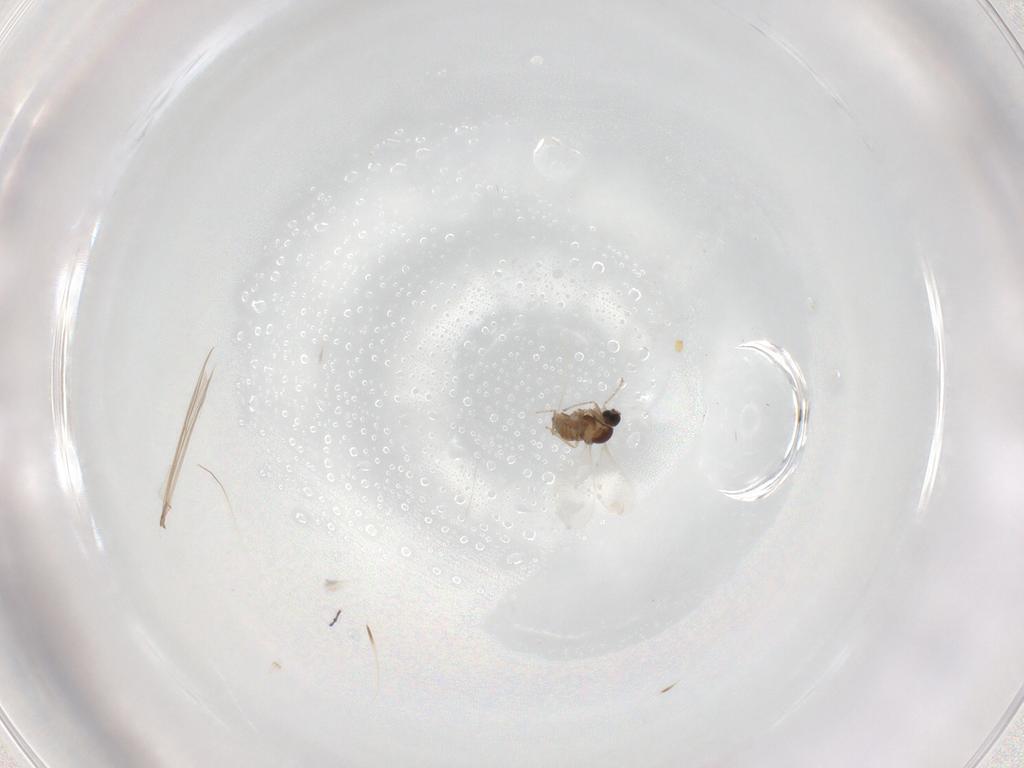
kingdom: Animalia
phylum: Arthropoda
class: Insecta
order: Diptera
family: Cecidomyiidae
